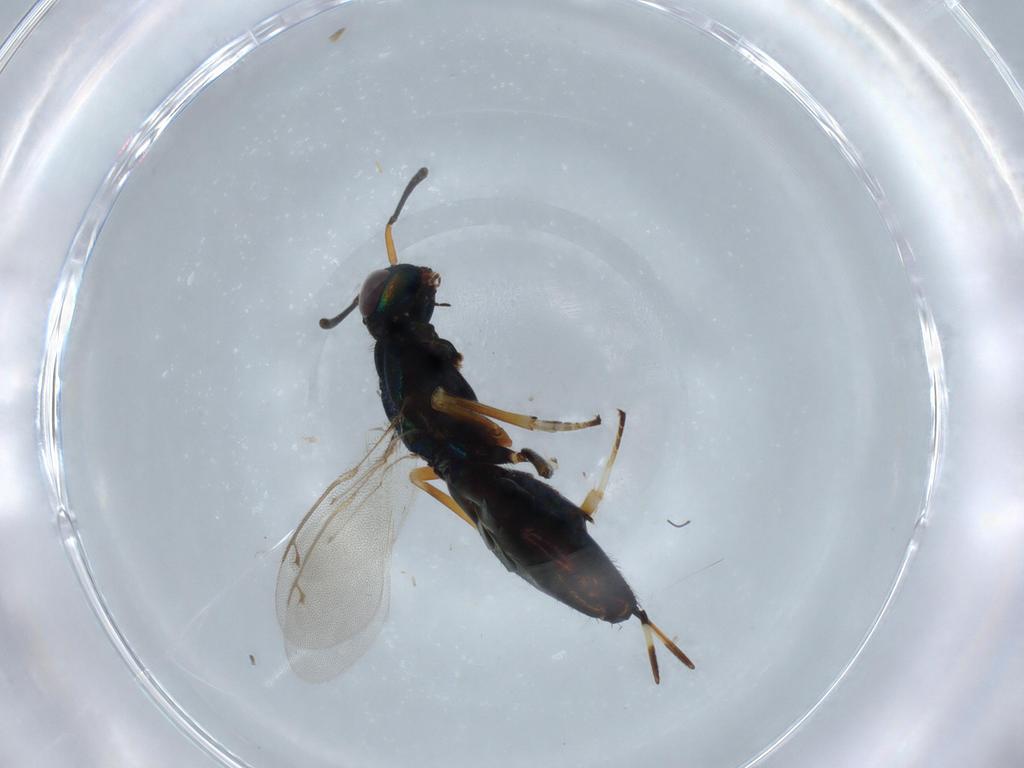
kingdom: Animalia
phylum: Arthropoda
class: Insecta
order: Hymenoptera
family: Eupelmidae
